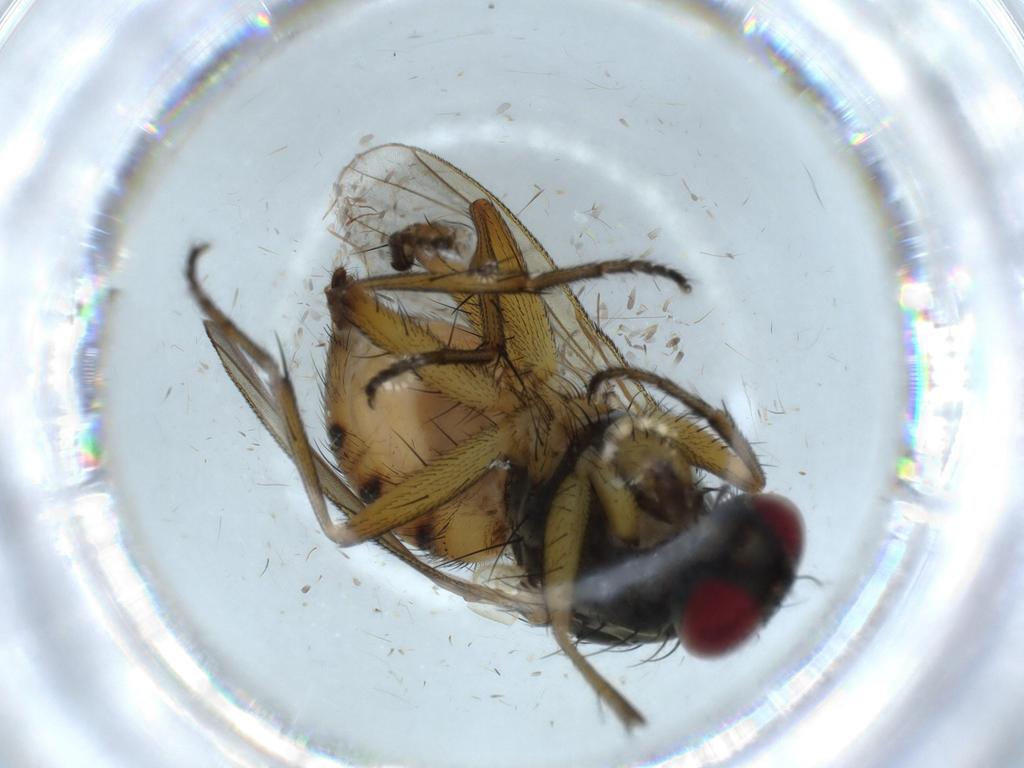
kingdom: Animalia
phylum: Arthropoda
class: Insecta
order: Diptera
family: Muscidae
